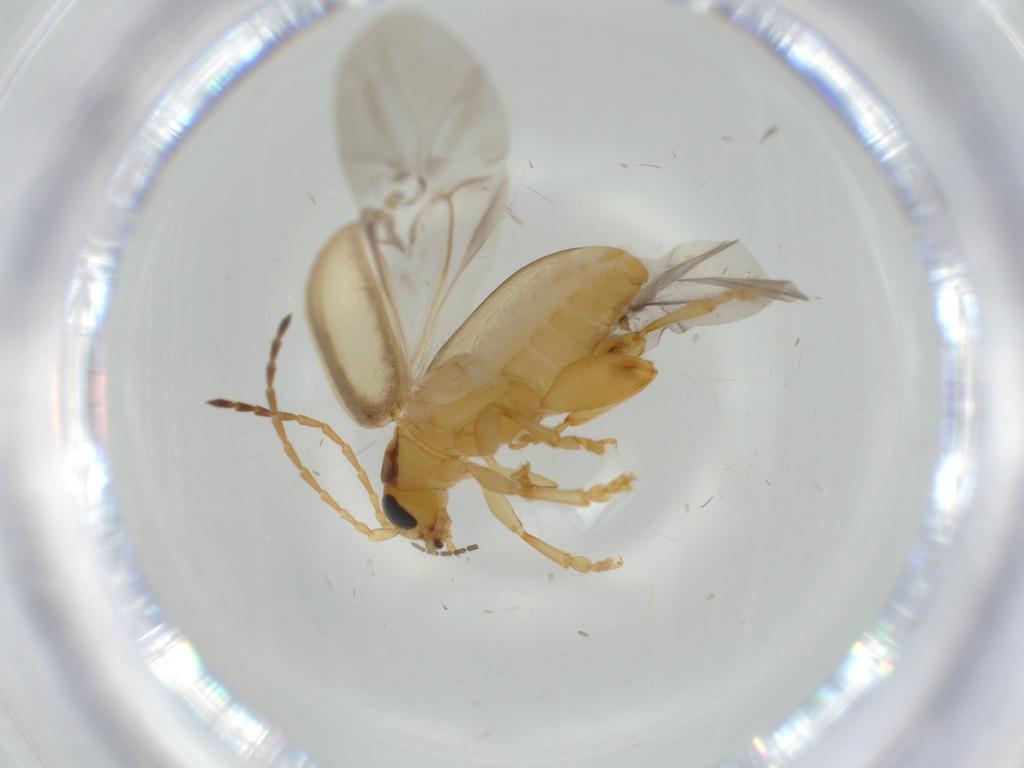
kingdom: Animalia
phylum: Arthropoda
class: Insecta
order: Coleoptera
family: Chrysomelidae
